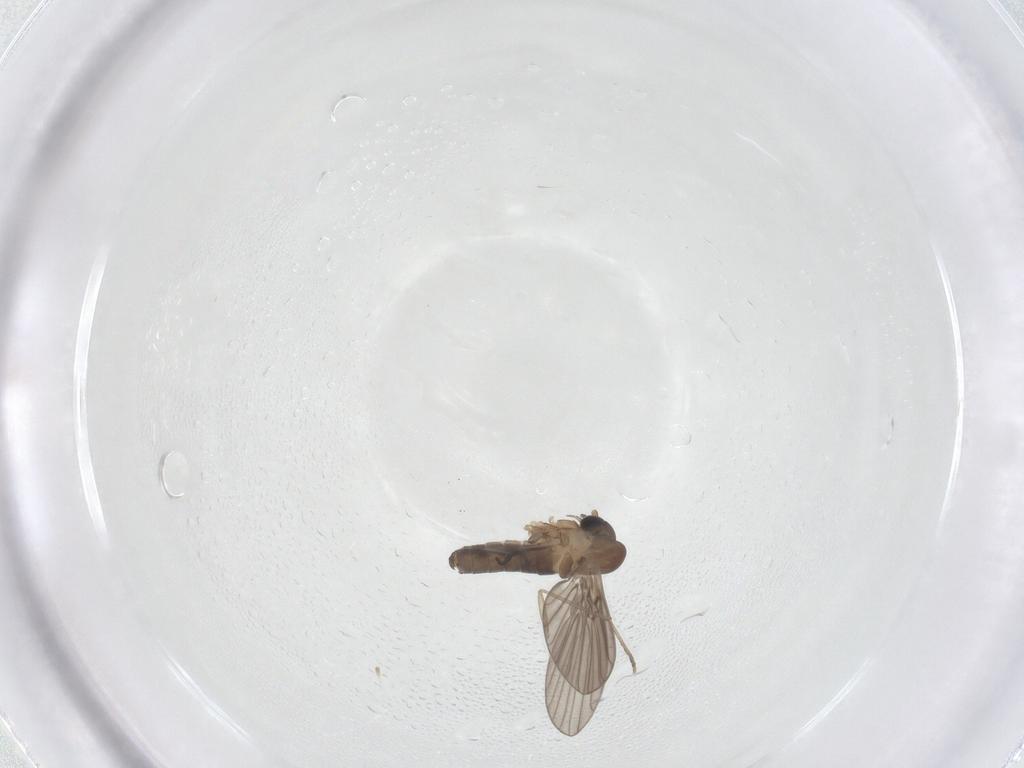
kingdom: Animalia
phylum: Arthropoda
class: Insecta
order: Diptera
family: Psychodidae
